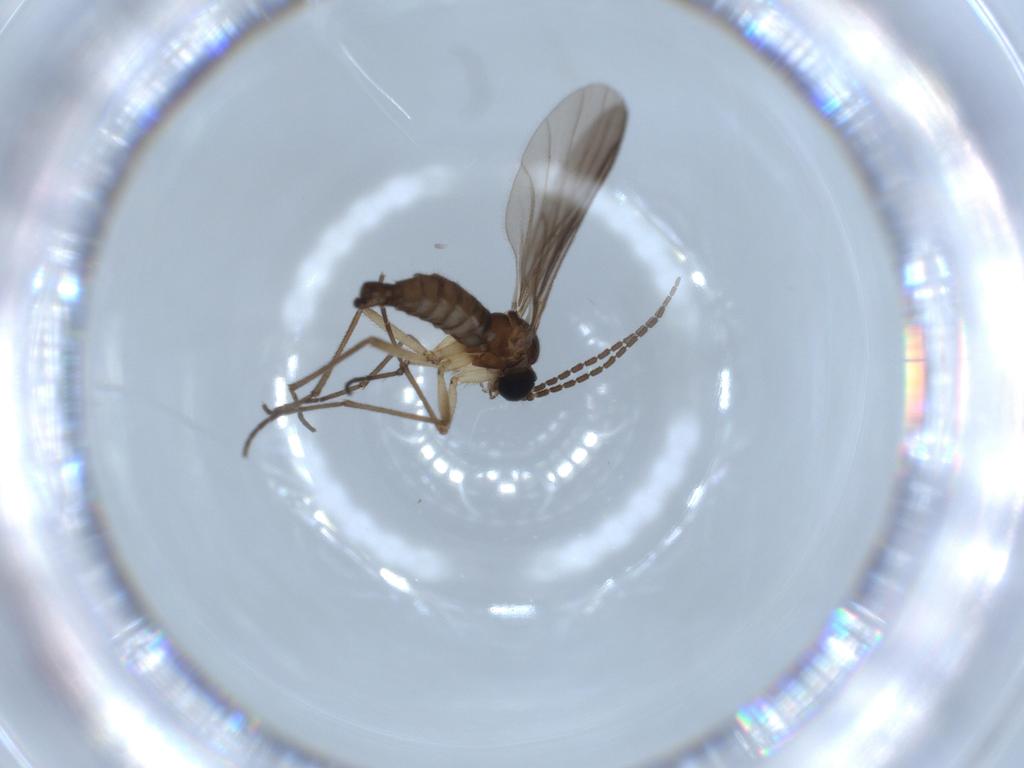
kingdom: Animalia
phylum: Arthropoda
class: Insecta
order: Diptera
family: Sciaridae
